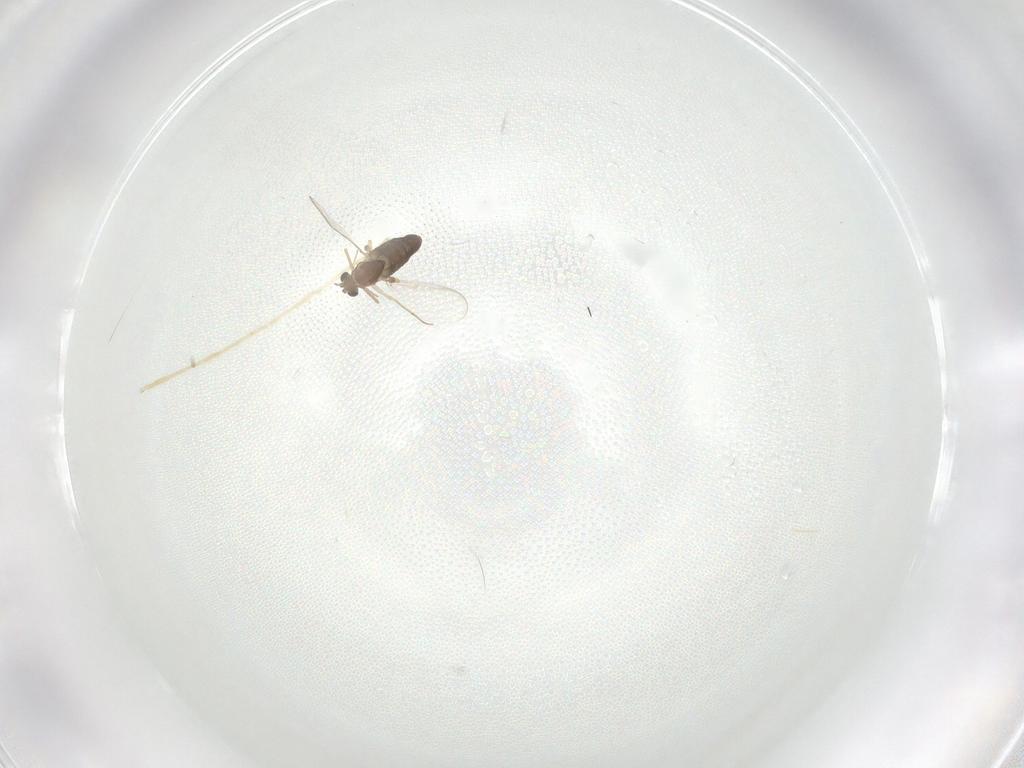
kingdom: Animalia
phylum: Arthropoda
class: Insecta
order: Diptera
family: Chironomidae
